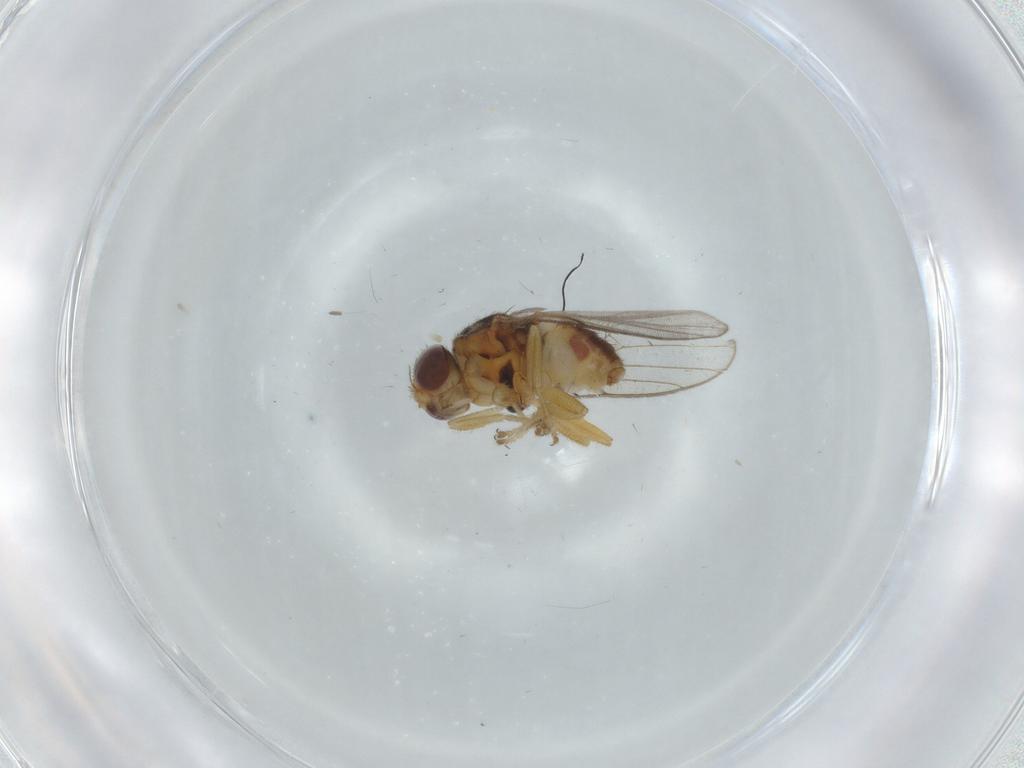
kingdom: Animalia
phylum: Arthropoda
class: Insecta
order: Diptera
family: Chloropidae
